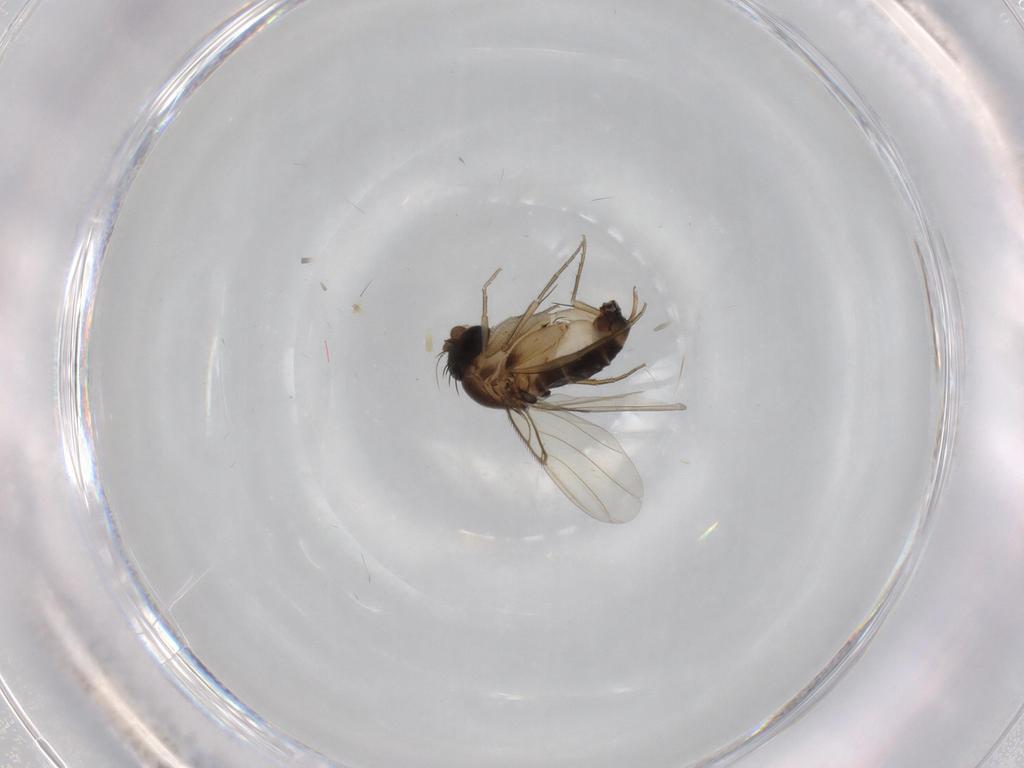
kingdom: Animalia
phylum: Arthropoda
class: Insecta
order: Diptera
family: Phoridae
